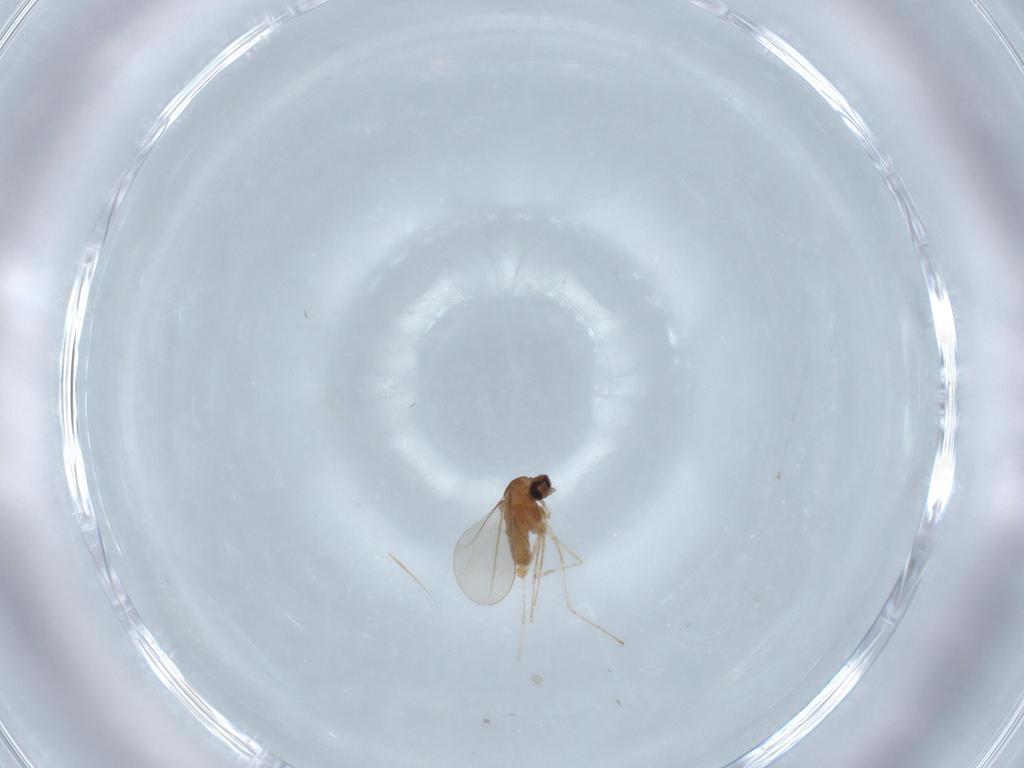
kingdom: Animalia
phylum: Arthropoda
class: Insecta
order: Diptera
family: Cecidomyiidae
